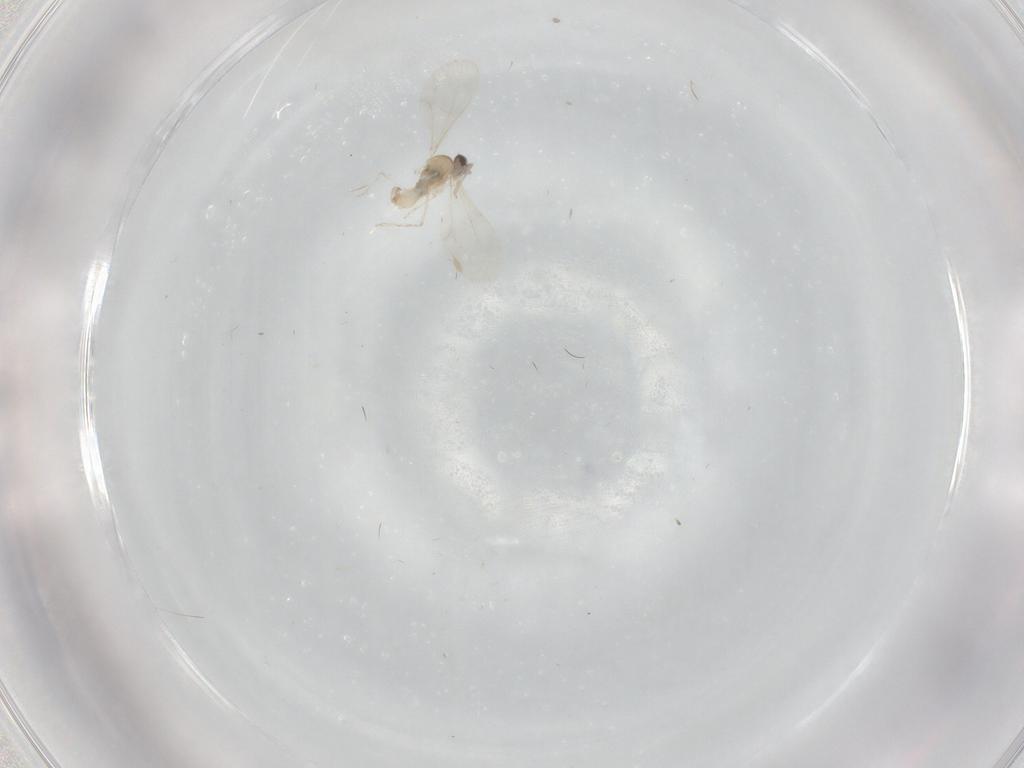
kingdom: Animalia
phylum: Arthropoda
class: Insecta
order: Diptera
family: Cecidomyiidae
